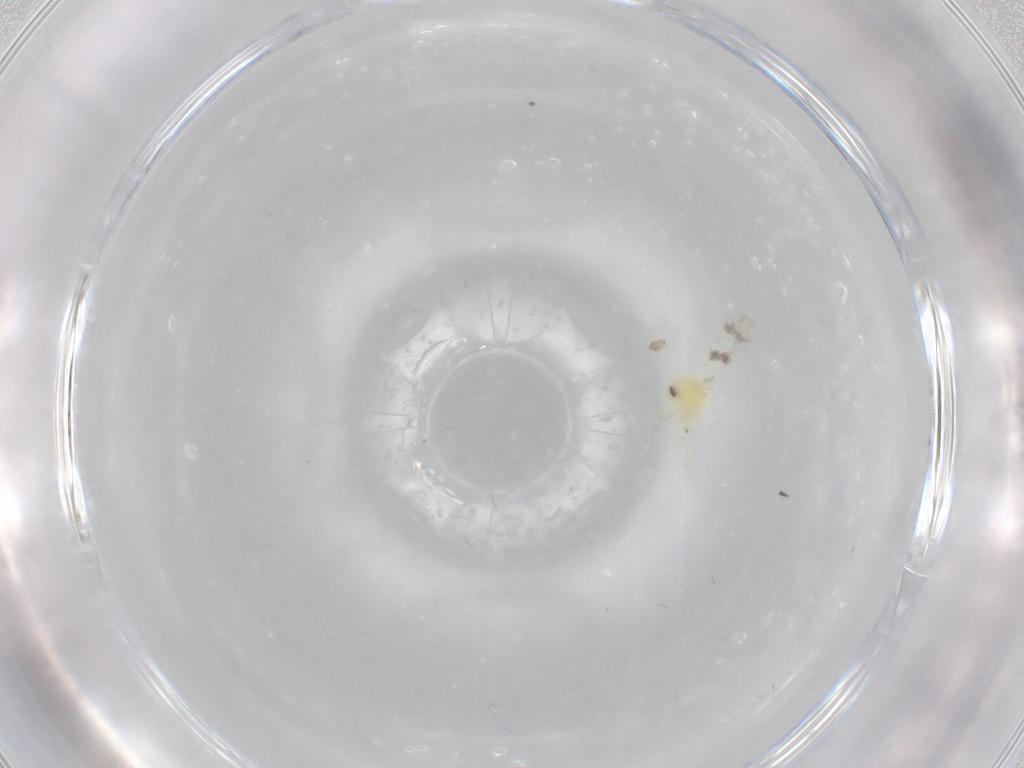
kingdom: Animalia
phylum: Arthropoda
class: Insecta
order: Hemiptera
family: Aleyrodidae
